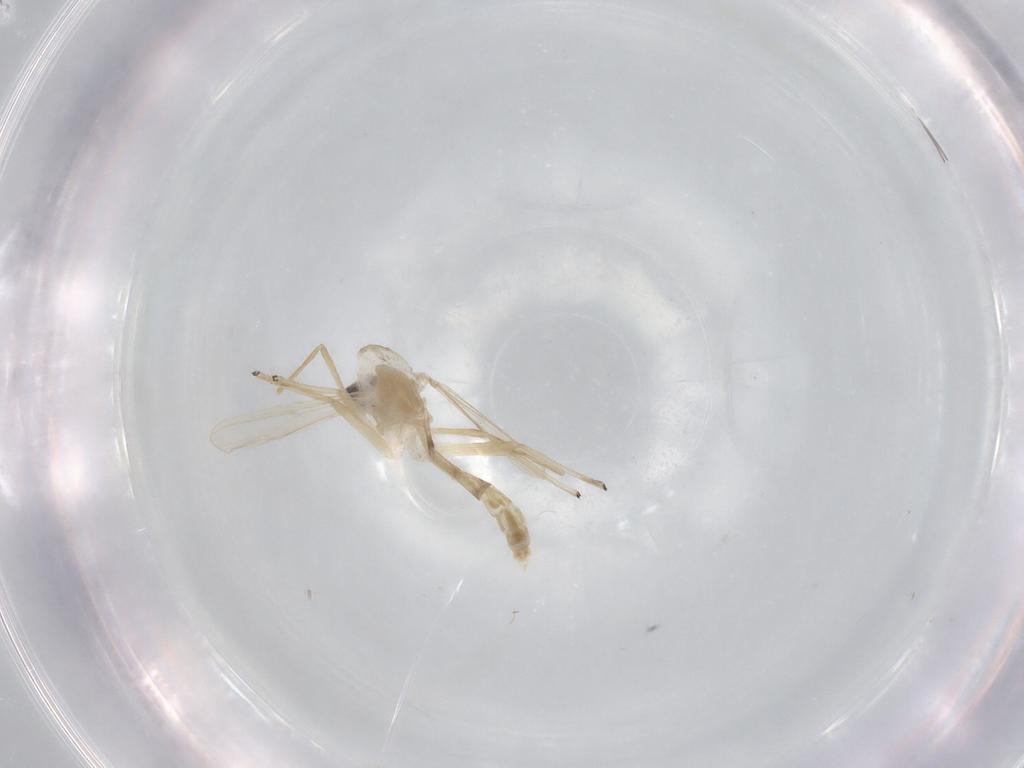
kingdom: Animalia
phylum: Arthropoda
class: Insecta
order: Diptera
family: Chironomidae
